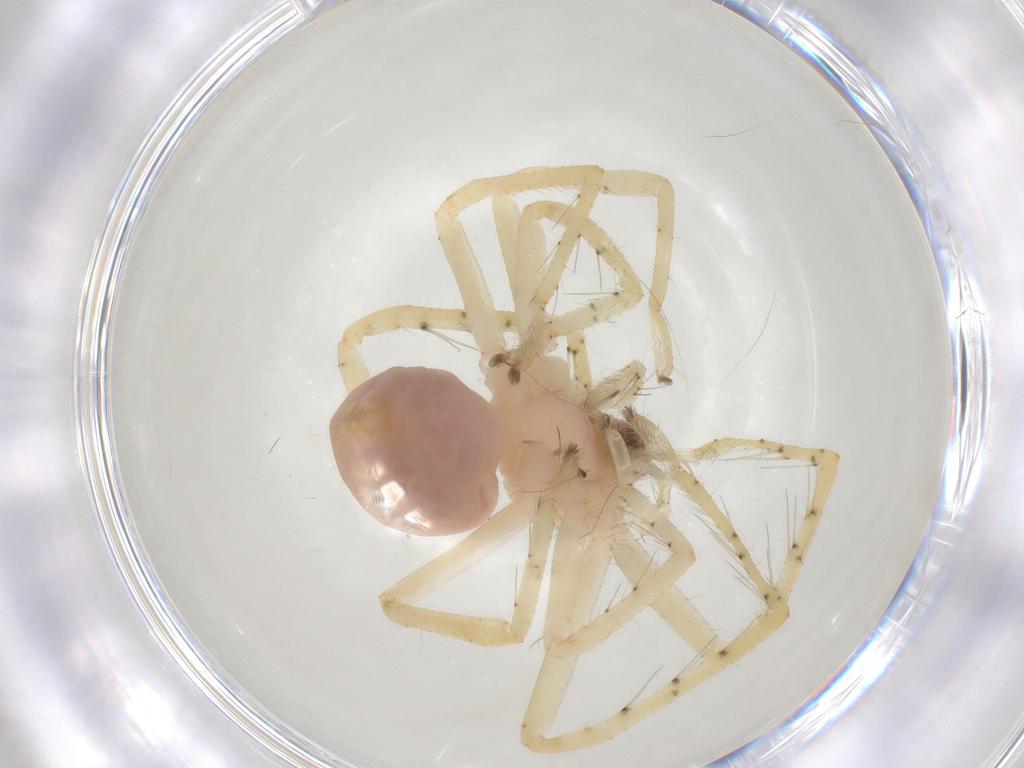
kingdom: Animalia
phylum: Arthropoda
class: Arachnida
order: Araneae
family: Sparassidae
